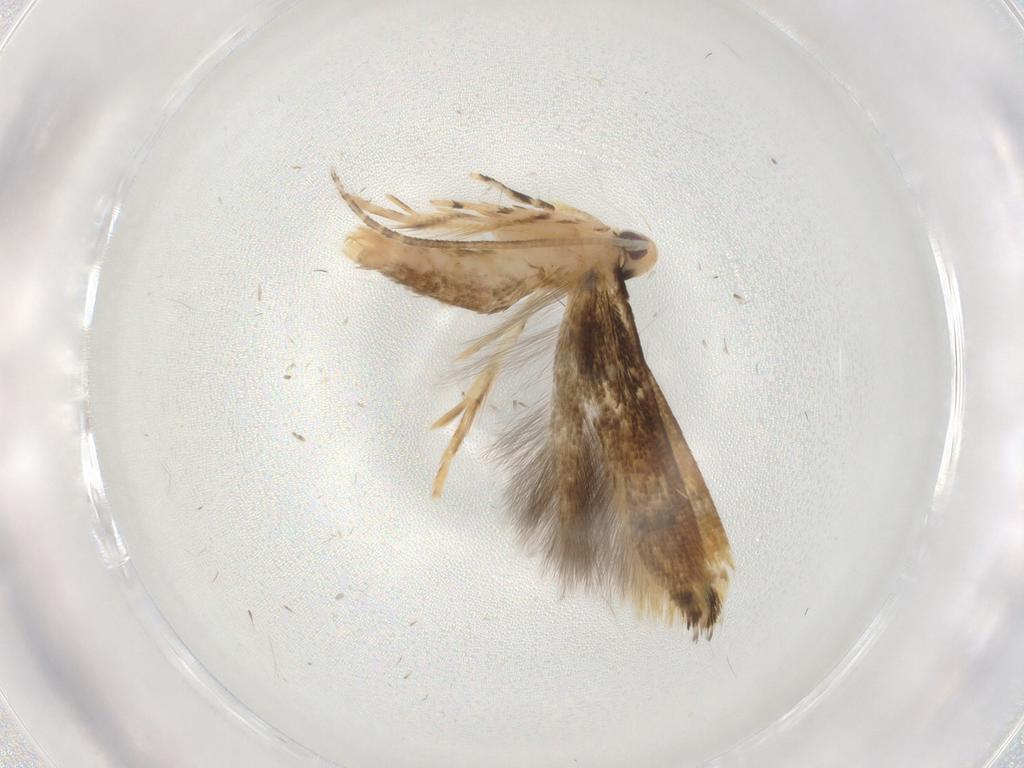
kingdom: Animalia
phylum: Arthropoda
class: Insecta
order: Lepidoptera
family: Momphidae
